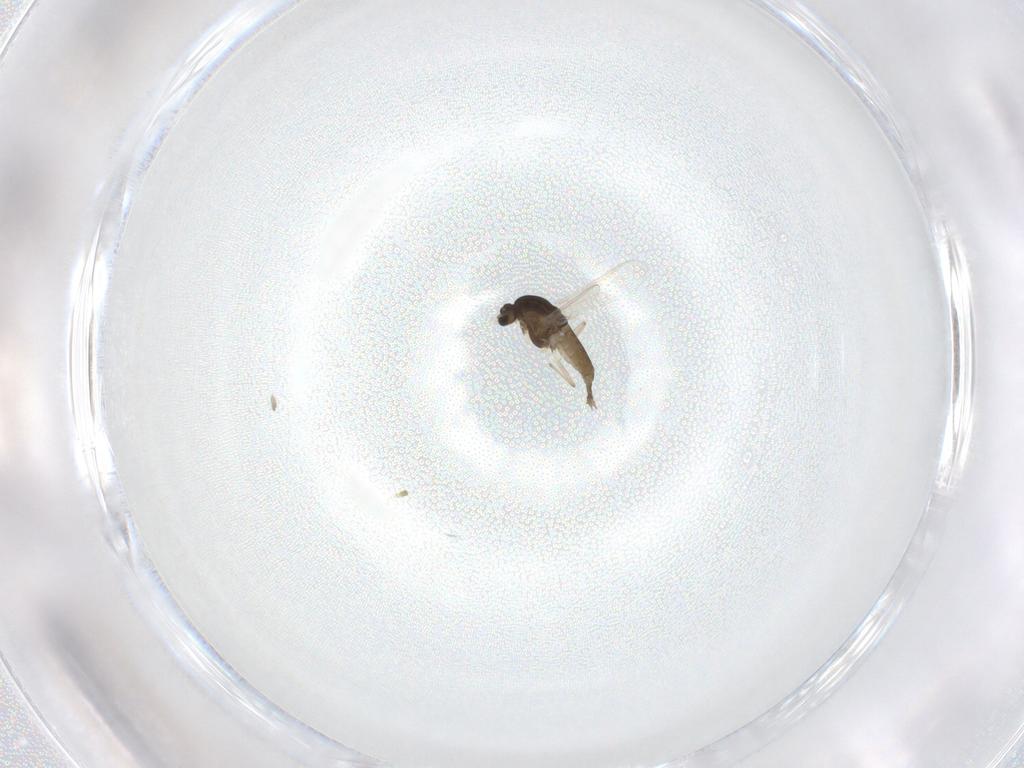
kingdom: Animalia
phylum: Arthropoda
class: Insecta
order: Diptera
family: Chironomidae
